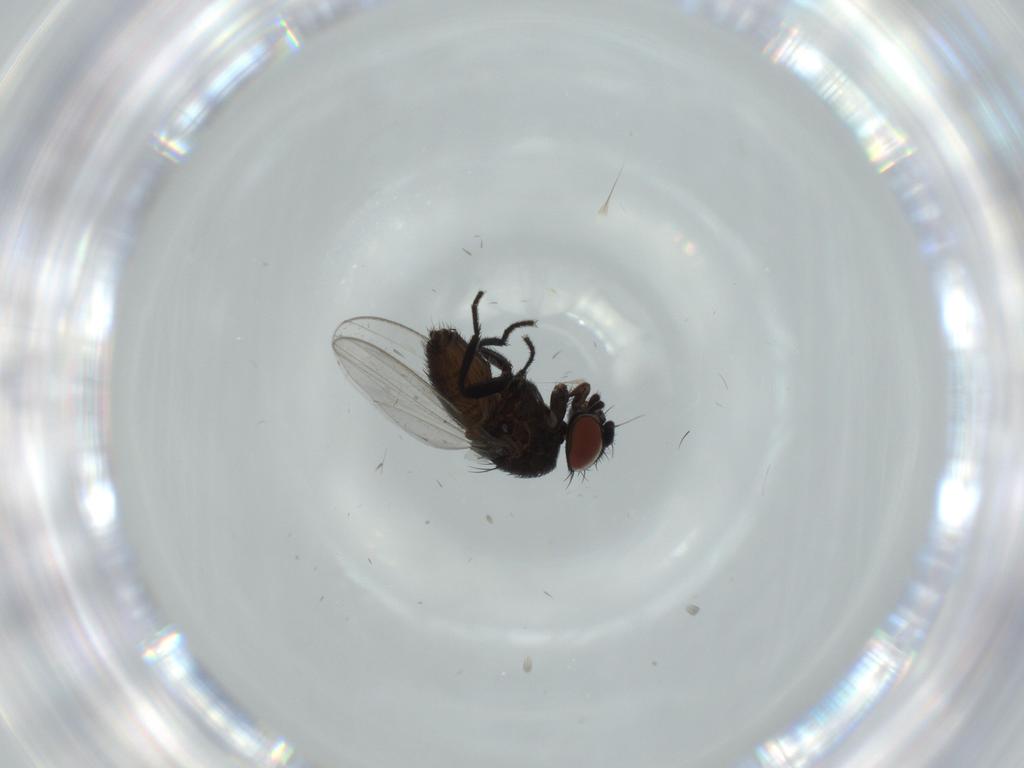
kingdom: Animalia
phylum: Arthropoda
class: Insecta
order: Diptera
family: Milichiidae
